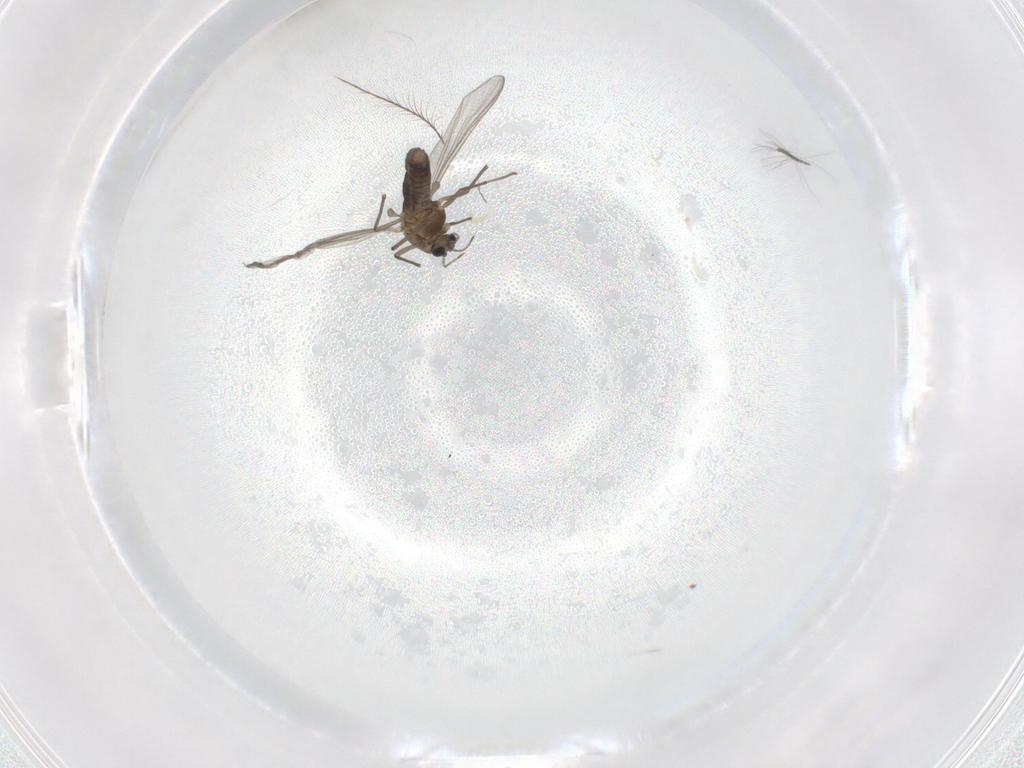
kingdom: Animalia
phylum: Arthropoda
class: Insecta
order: Diptera
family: Chironomidae
